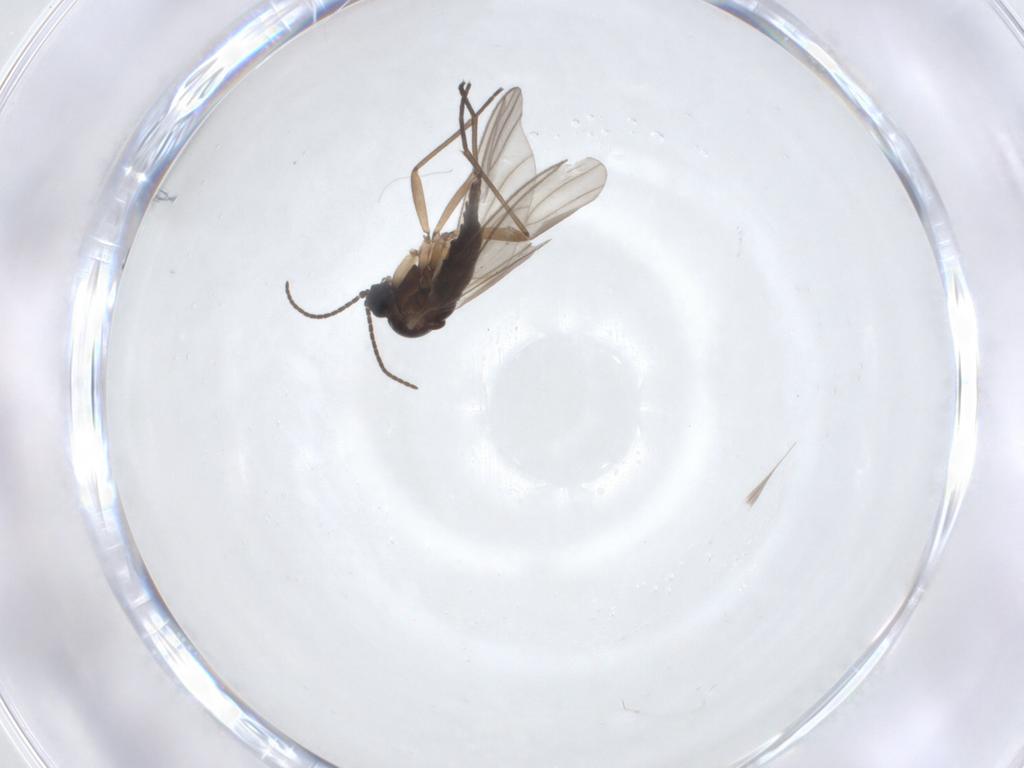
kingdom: Animalia
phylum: Arthropoda
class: Insecta
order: Diptera
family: Sciaridae
